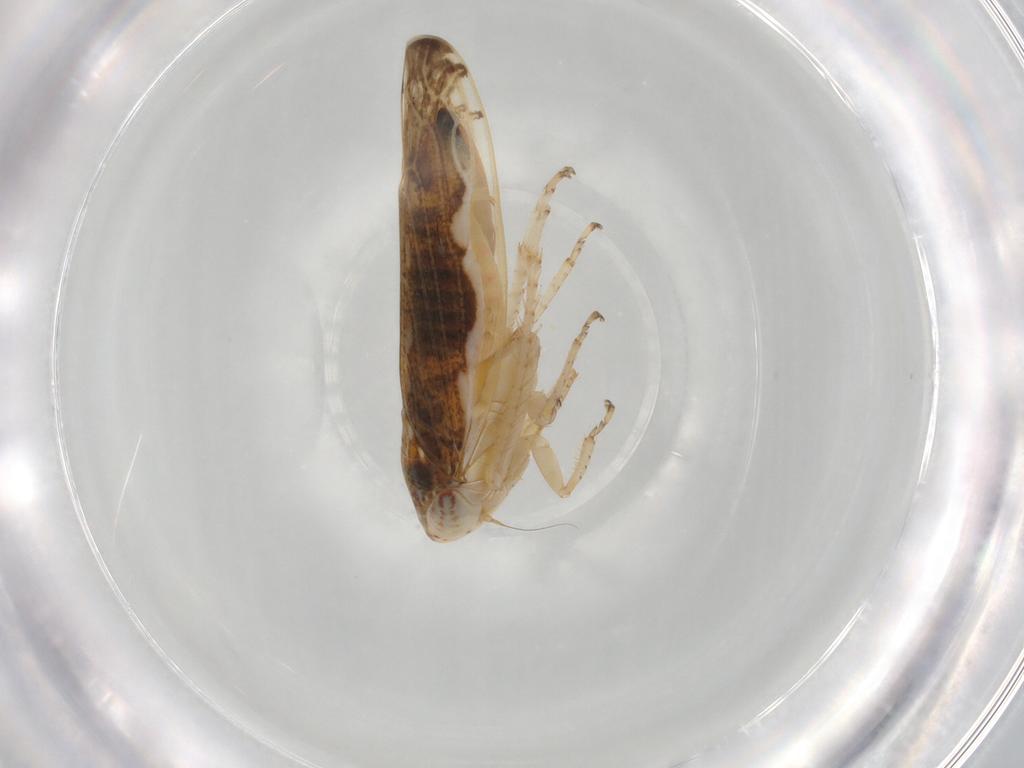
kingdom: Animalia
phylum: Arthropoda
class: Insecta
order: Hemiptera
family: Cicadellidae
